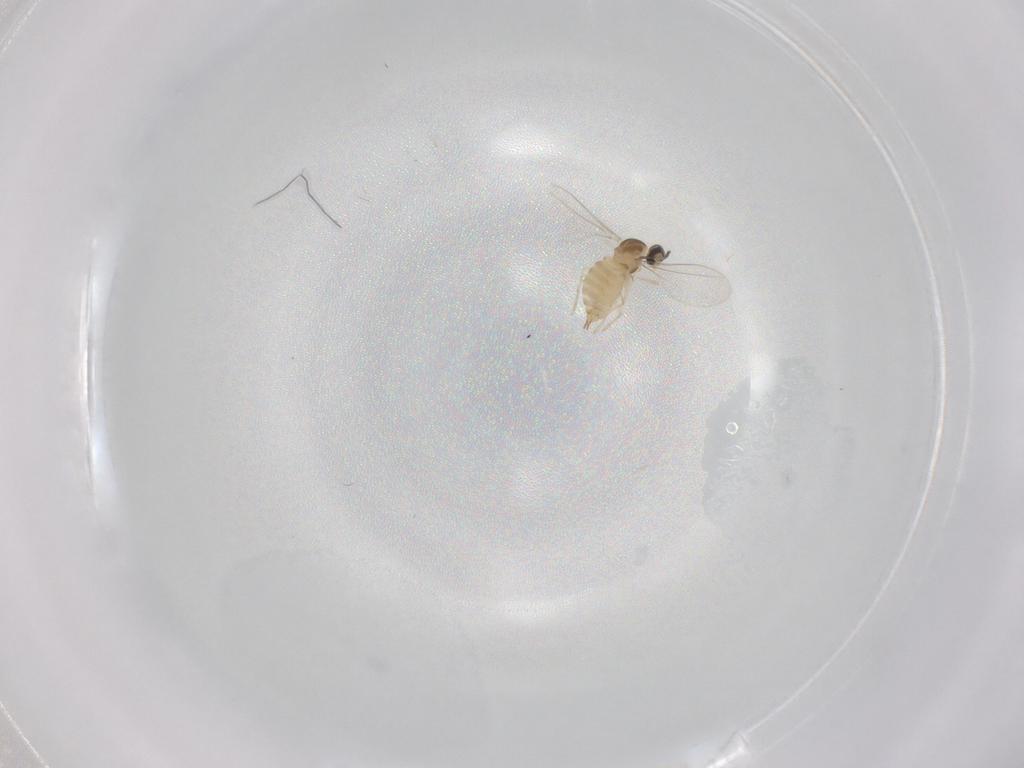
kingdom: Animalia
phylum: Arthropoda
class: Insecta
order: Diptera
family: Cecidomyiidae
